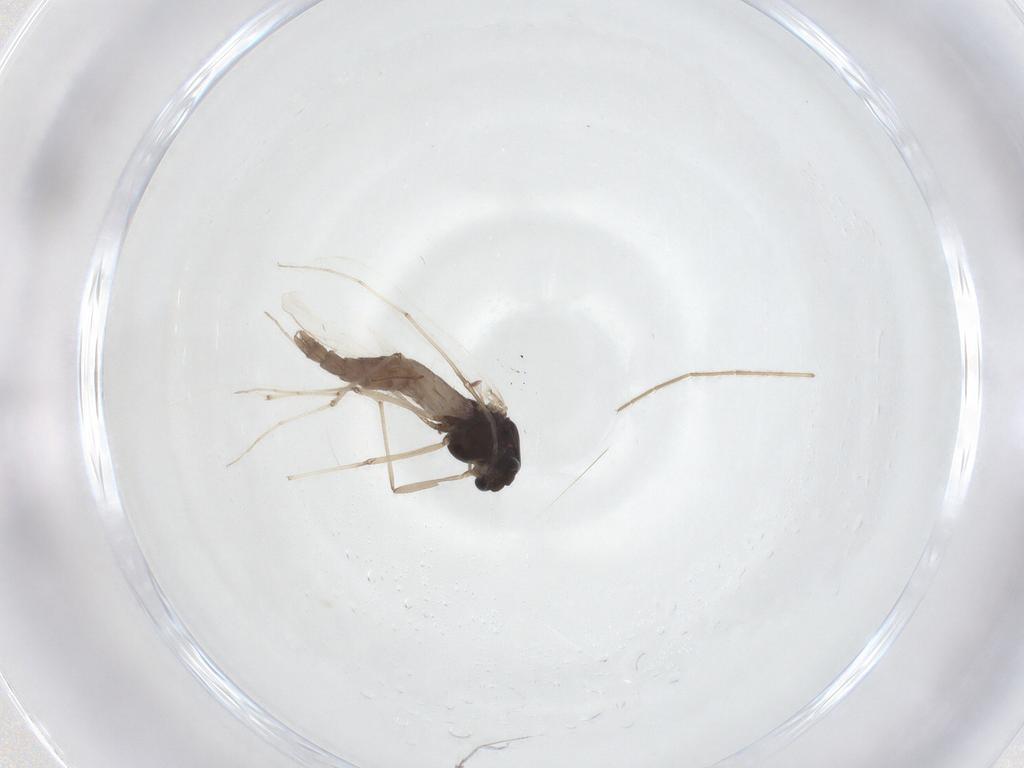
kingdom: Animalia
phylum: Arthropoda
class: Insecta
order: Diptera
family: Chironomidae
